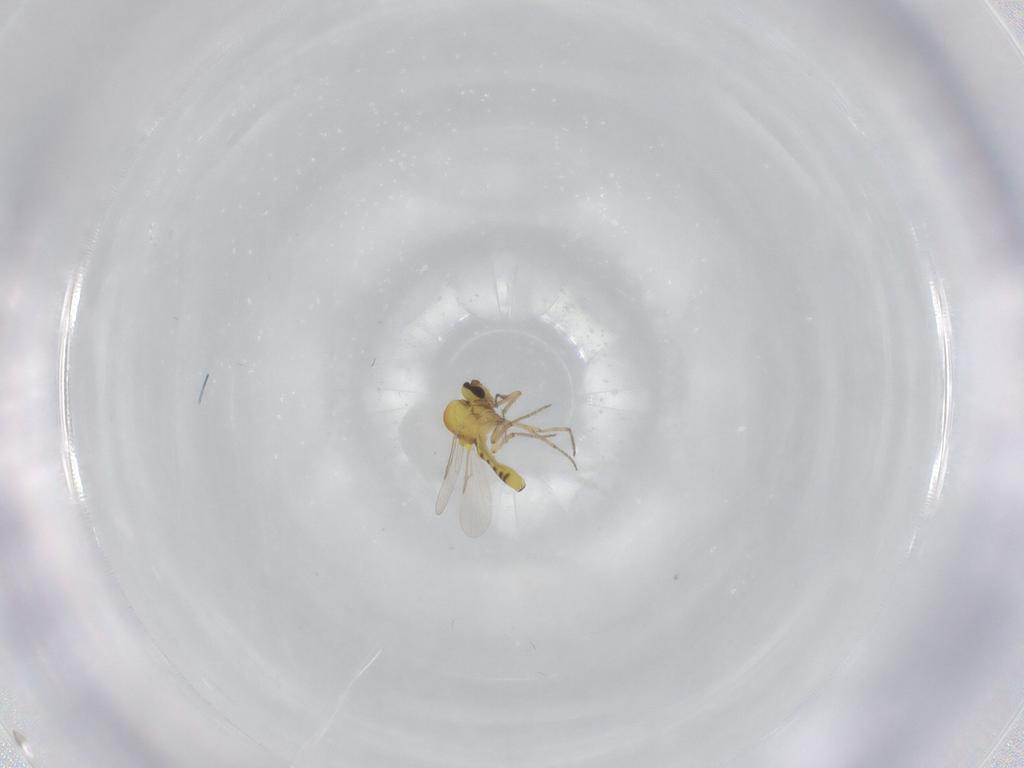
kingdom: Animalia
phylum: Arthropoda
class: Insecta
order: Diptera
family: Ceratopogonidae
